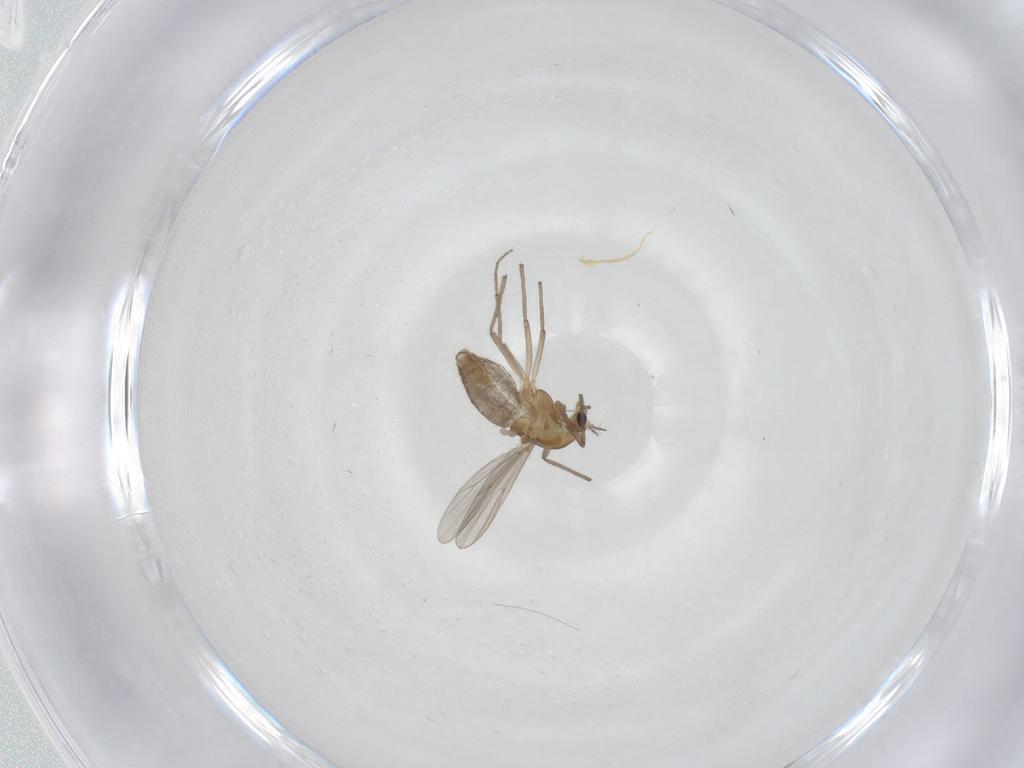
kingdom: Animalia
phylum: Arthropoda
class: Insecta
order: Diptera
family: Chironomidae
